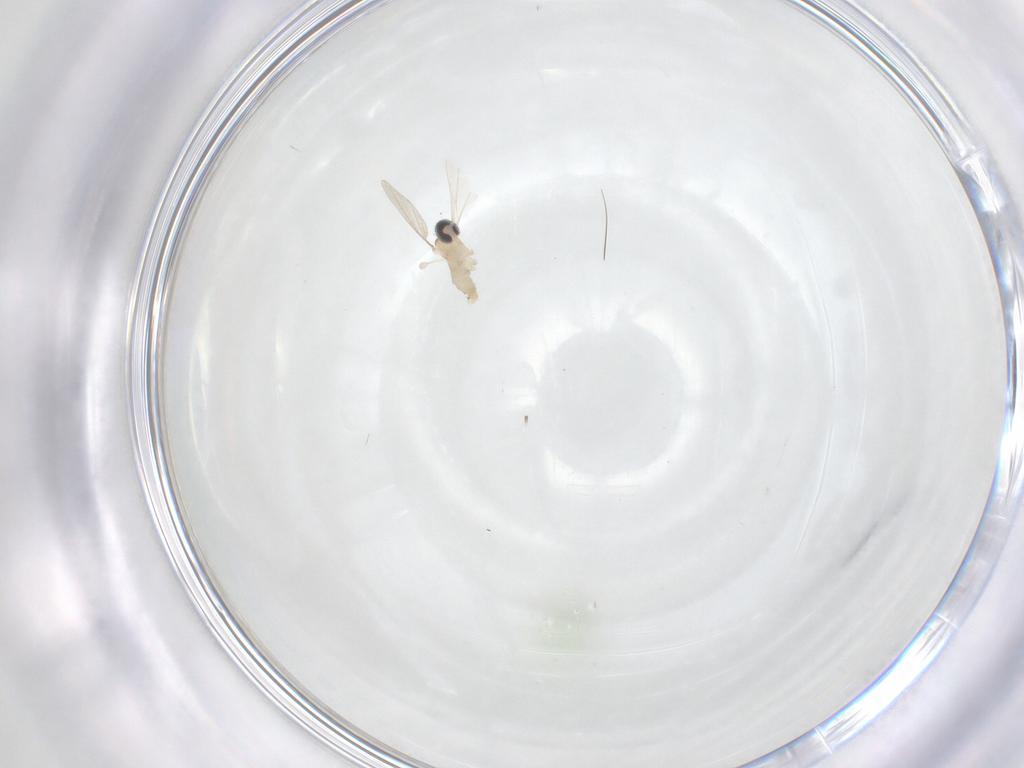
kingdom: Animalia
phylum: Arthropoda
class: Insecta
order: Diptera
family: Cecidomyiidae
